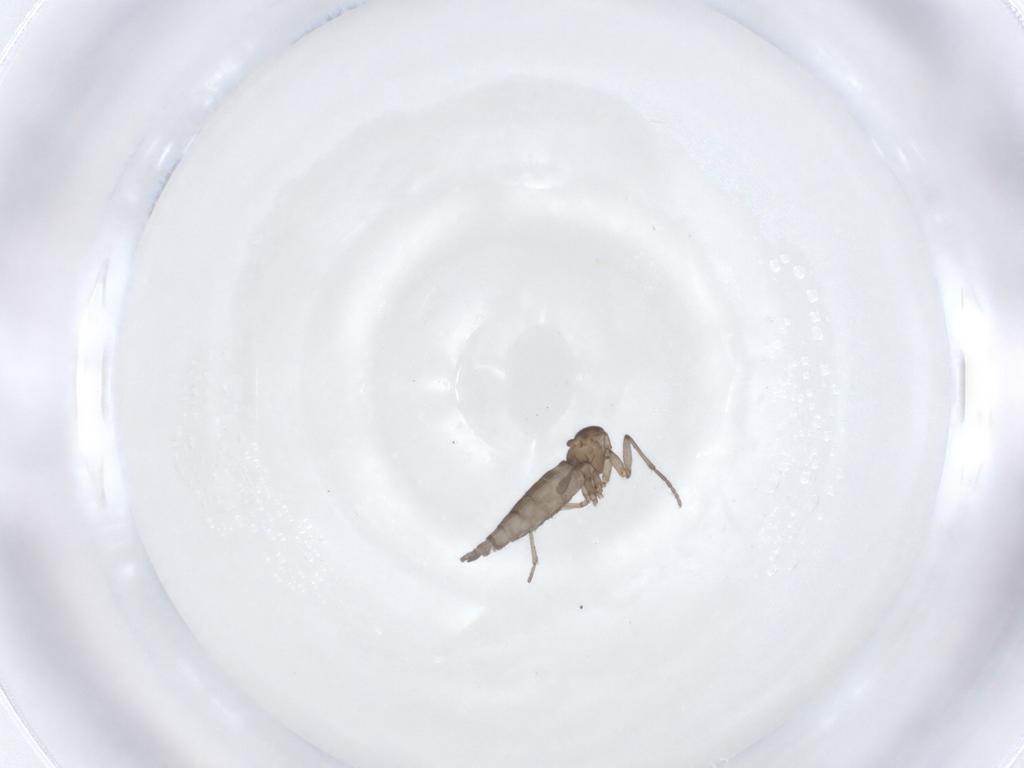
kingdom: Animalia
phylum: Arthropoda
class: Insecta
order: Diptera
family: Sciaridae
